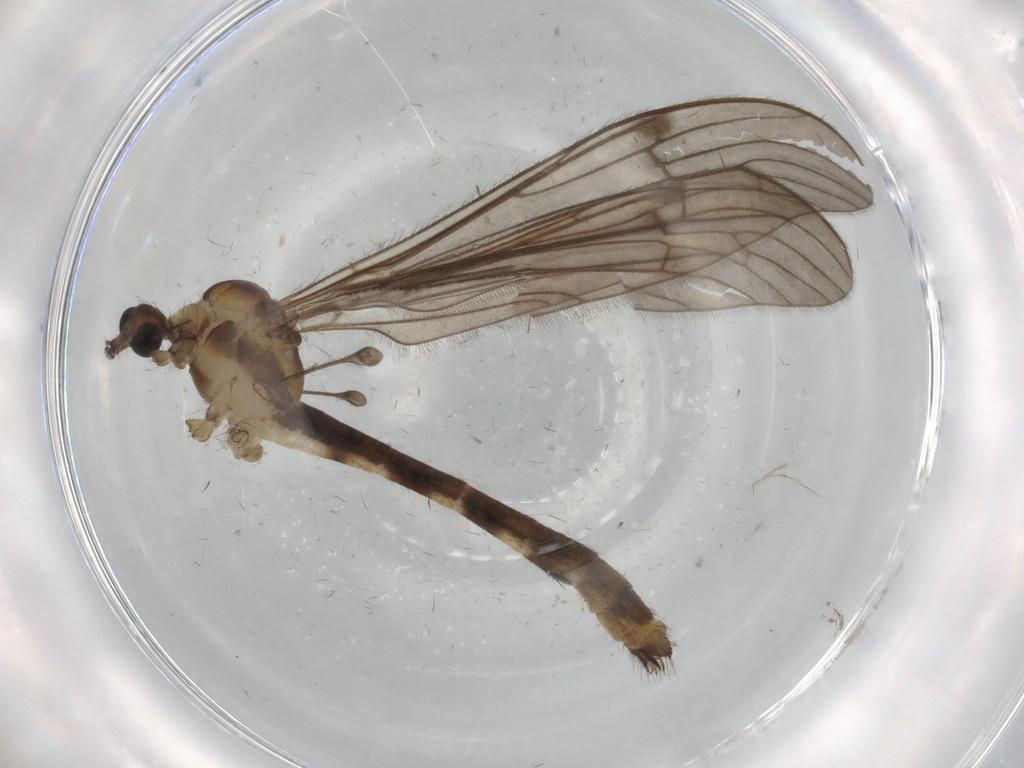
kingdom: Animalia
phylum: Arthropoda
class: Insecta
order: Diptera
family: Limoniidae
